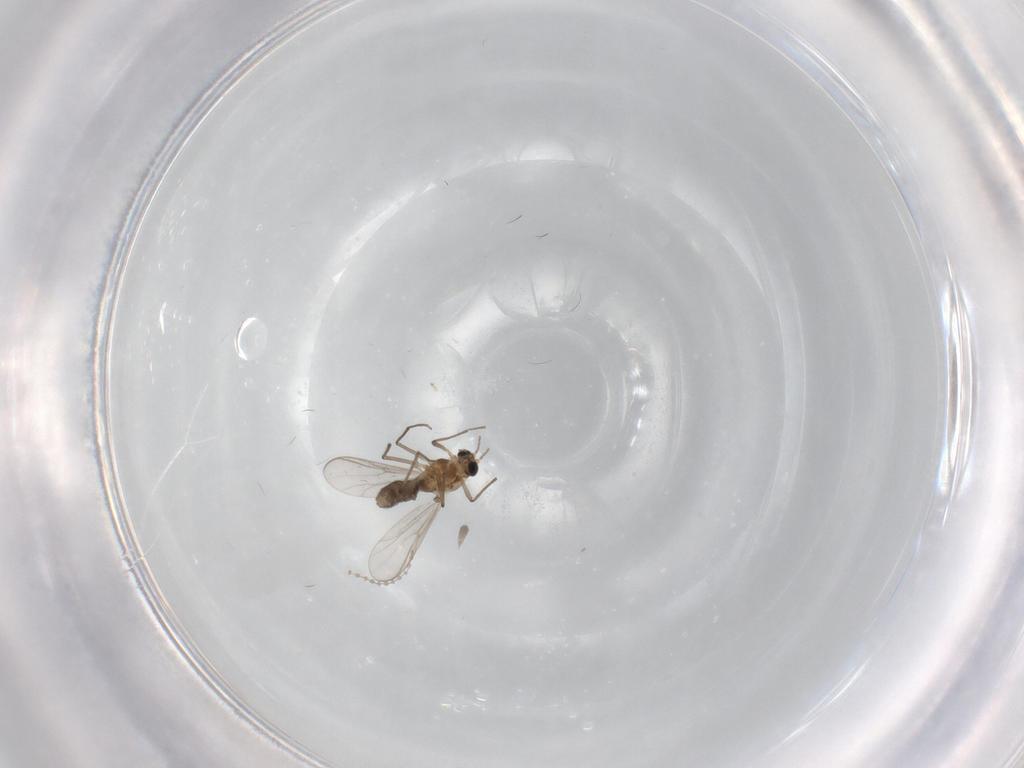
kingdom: Animalia
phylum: Arthropoda
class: Insecta
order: Diptera
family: Chironomidae
